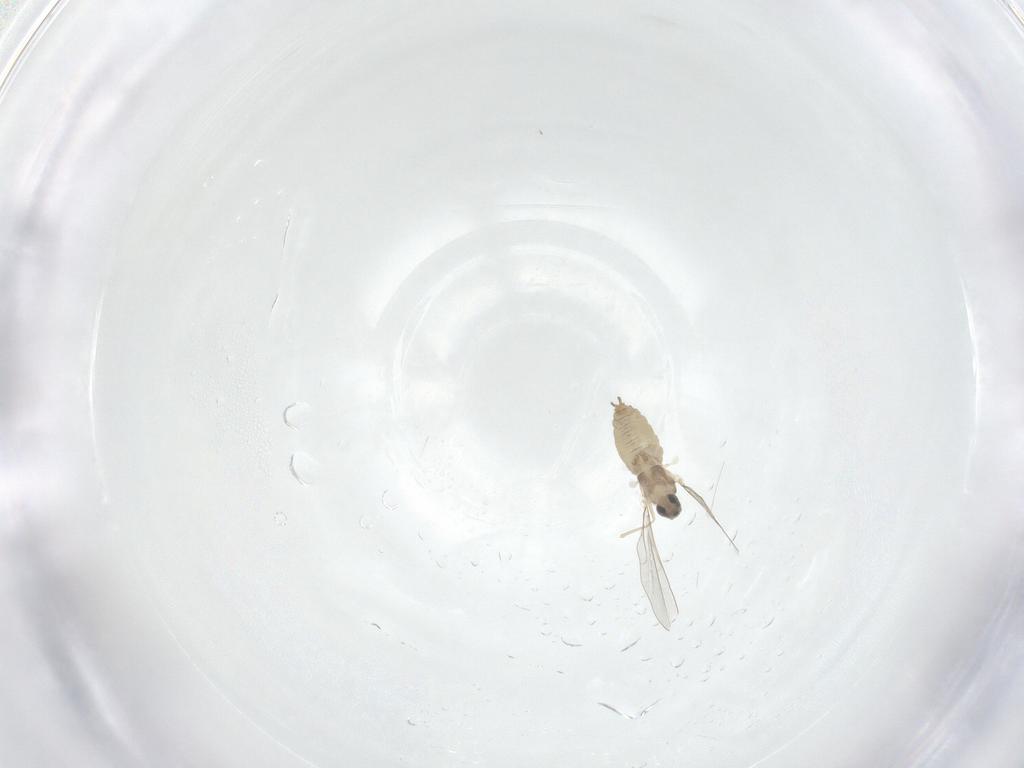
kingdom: Animalia
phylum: Arthropoda
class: Insecta
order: Diptera
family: Cecidomyiidae
